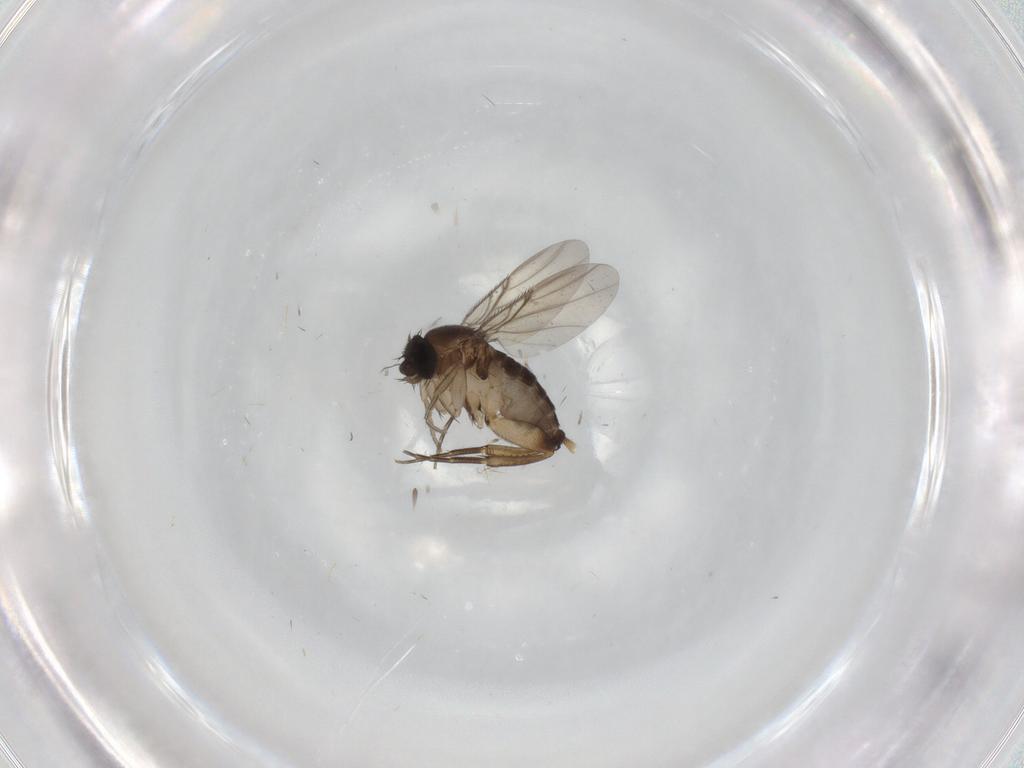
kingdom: Animalia
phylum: Arthropoda
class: Insecta
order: Diptera
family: Phoridae
